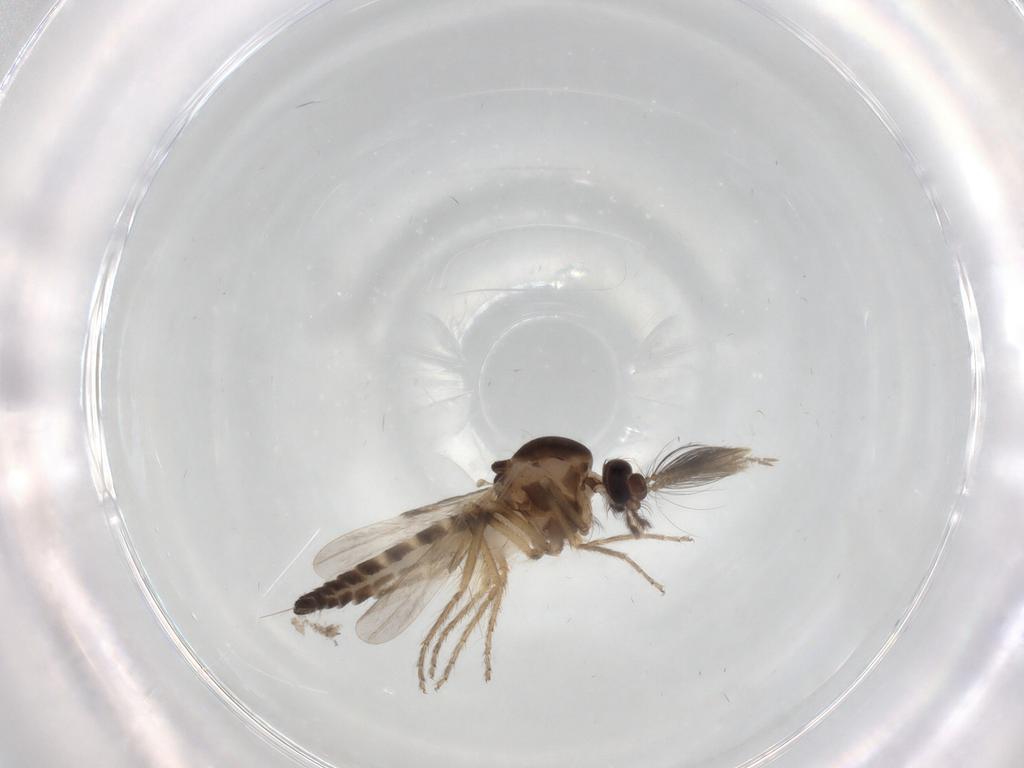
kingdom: Animalia
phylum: Arthropoda
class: Insecta
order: Diptera
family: Ceratopogonidae
